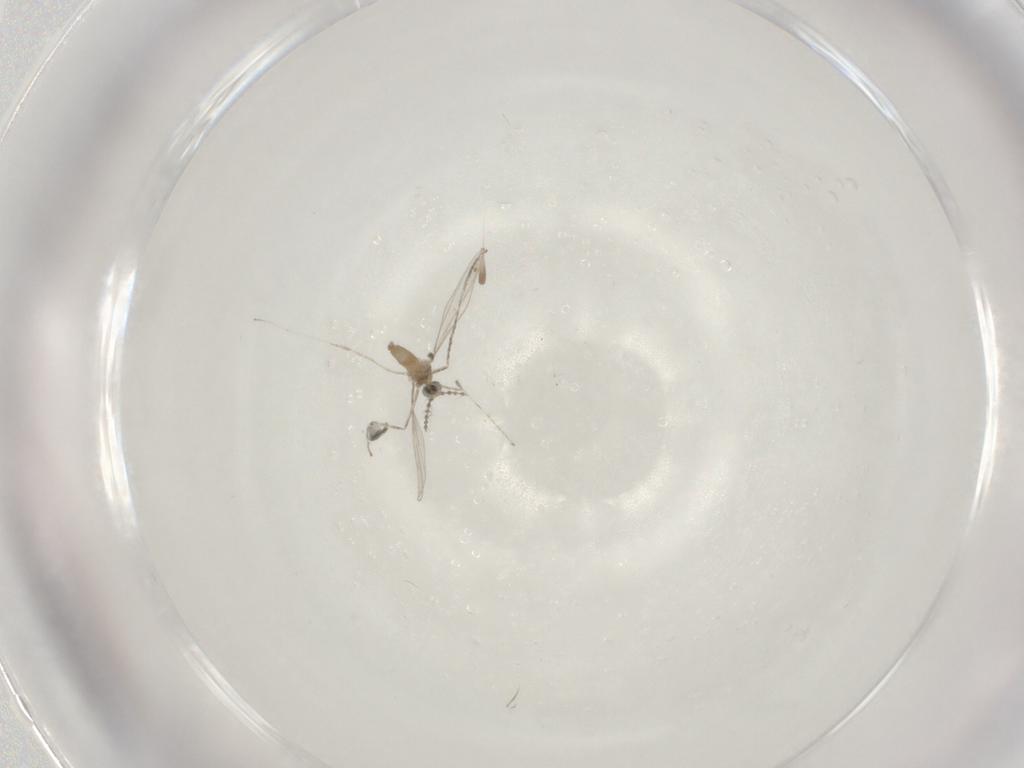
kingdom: Animalia
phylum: Arthropoda
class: Insecta
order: Diptera
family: Cecidomyiidae
